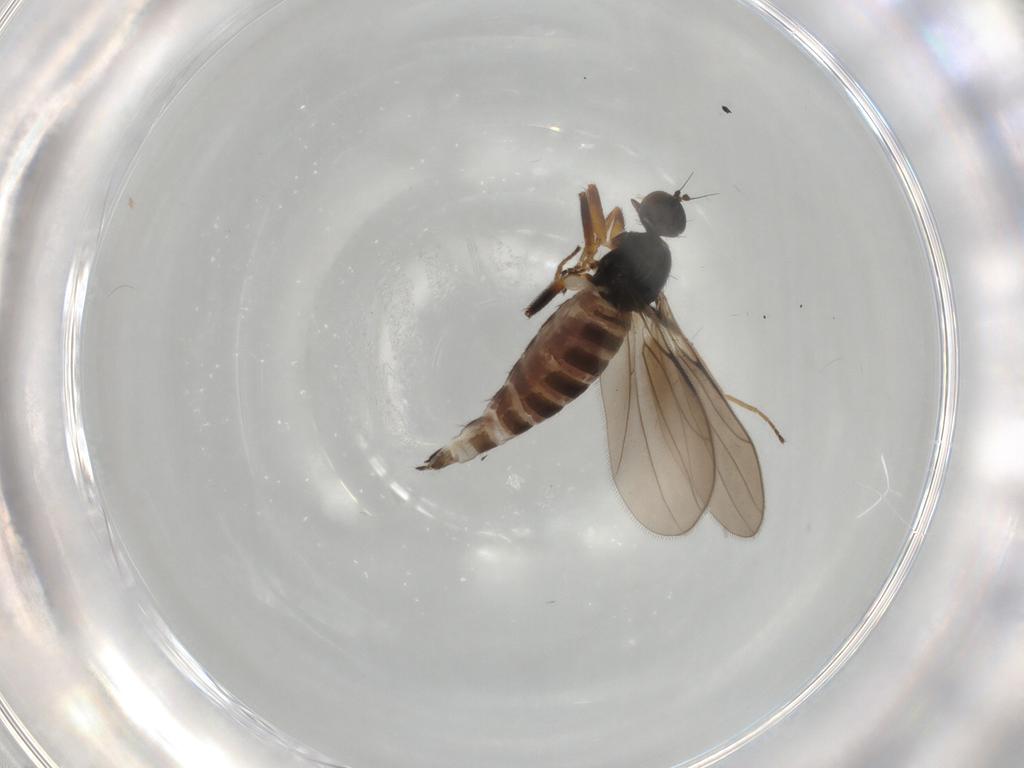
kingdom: Animalia
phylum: Arthropoda
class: Insecta
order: Diptera
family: Hybotidae
